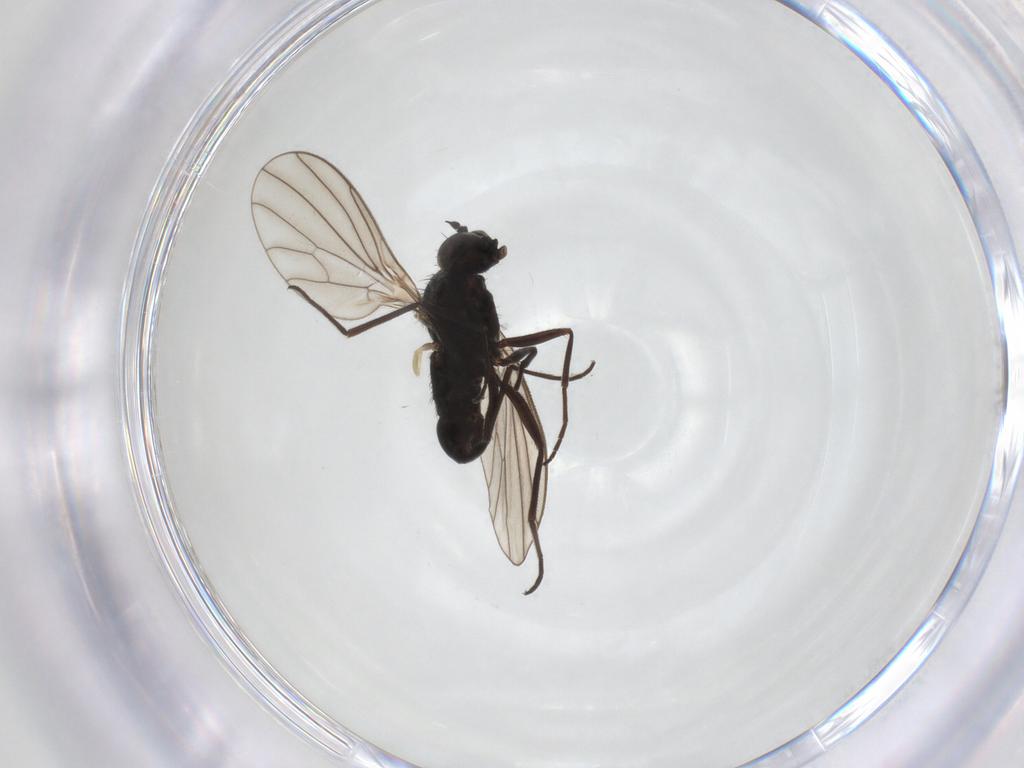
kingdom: Animalia
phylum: Arthropoda
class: Insecta
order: Diptera
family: Dolichopodidae
